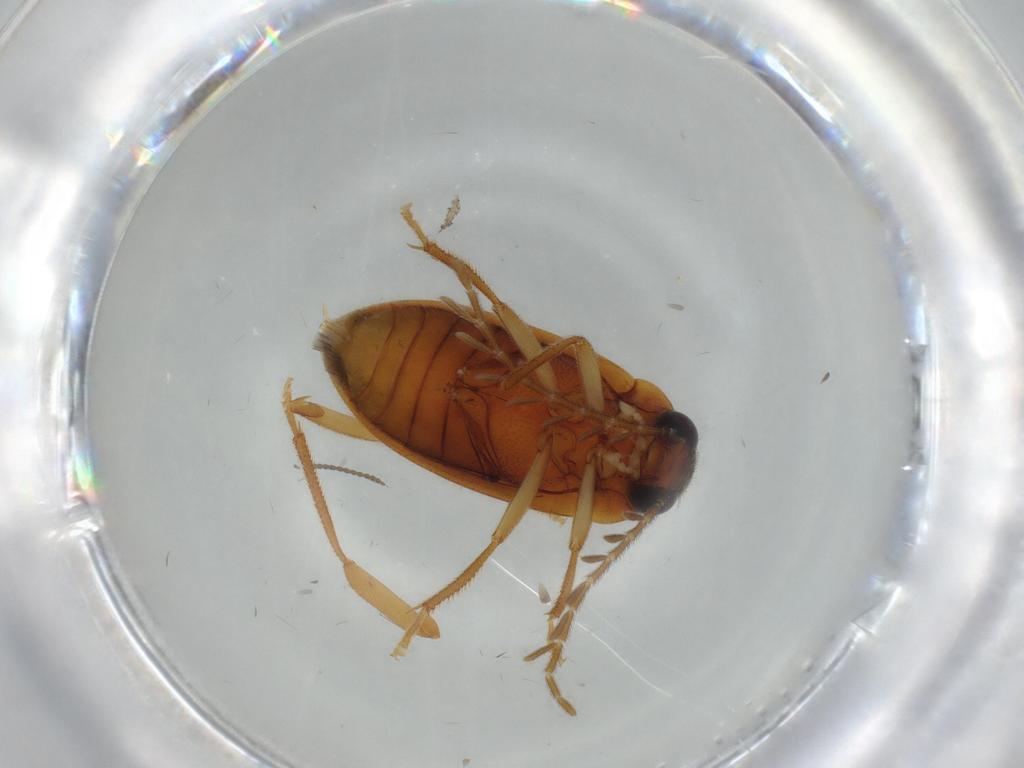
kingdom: Animalia
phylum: Arthropoda
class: Insecta
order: Coleoptera
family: Ptilodactylidae
